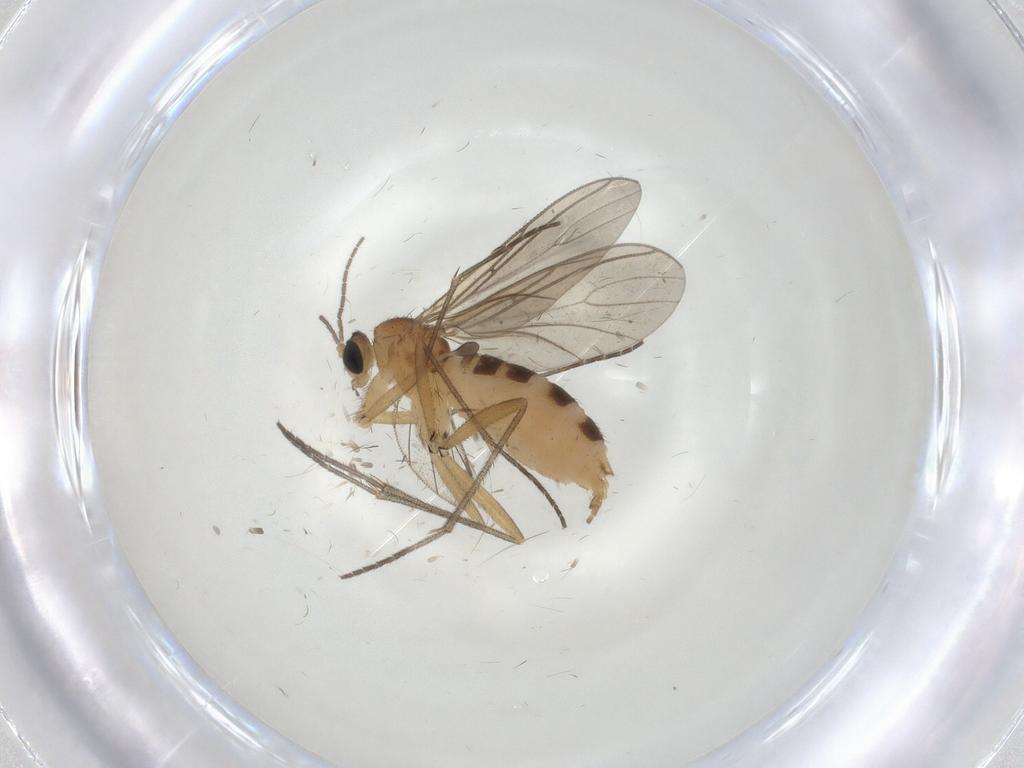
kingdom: Animalia
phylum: Arthropoda
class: Insecta
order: Diptera
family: Sciaridae
